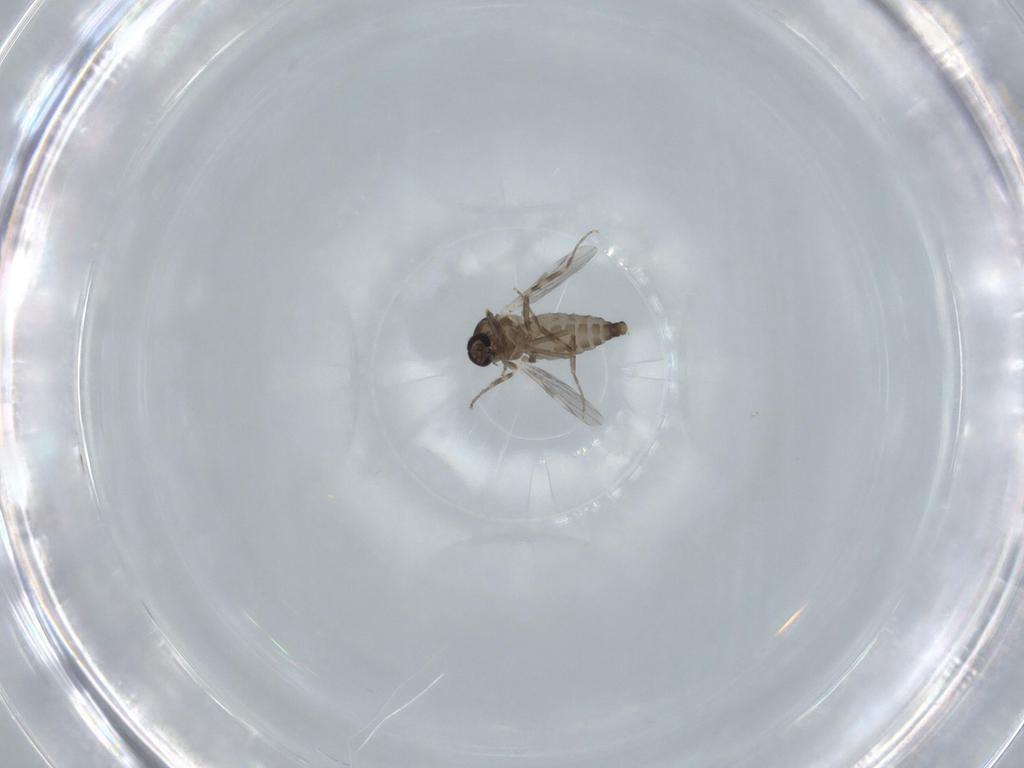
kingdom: Animalia
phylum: Arthropoda
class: Insecta
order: Diptera
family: Ceratopogonidae
